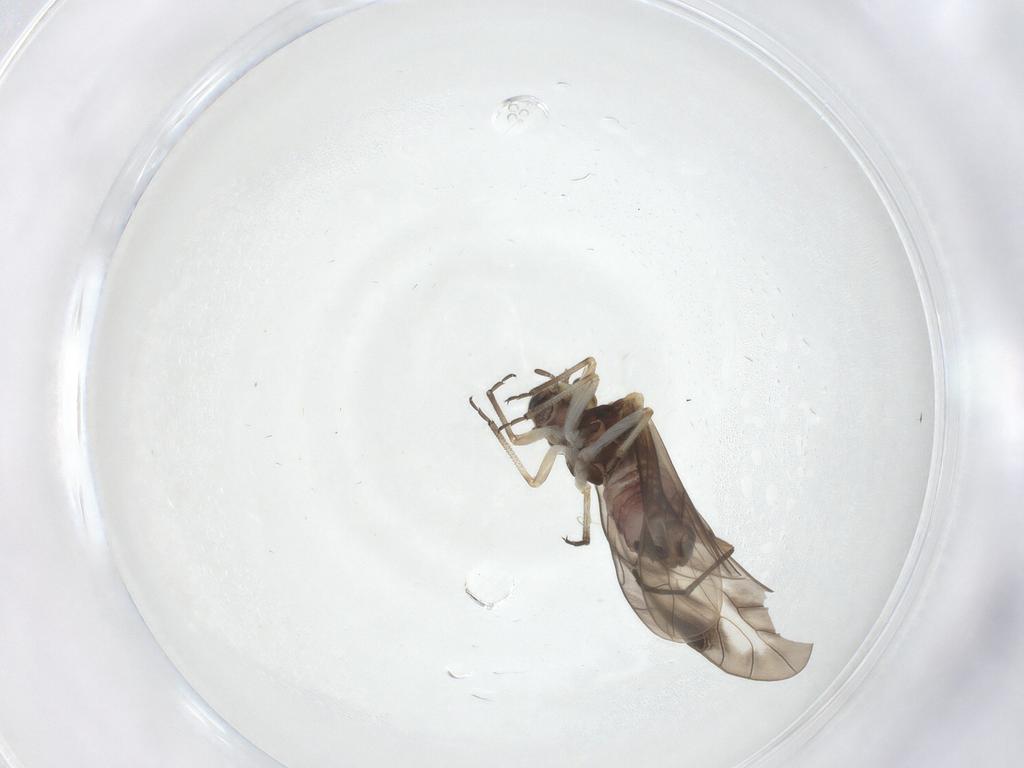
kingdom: Animalia
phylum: Arthropoda
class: Insecta
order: Psocodea
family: Peripsocidae
